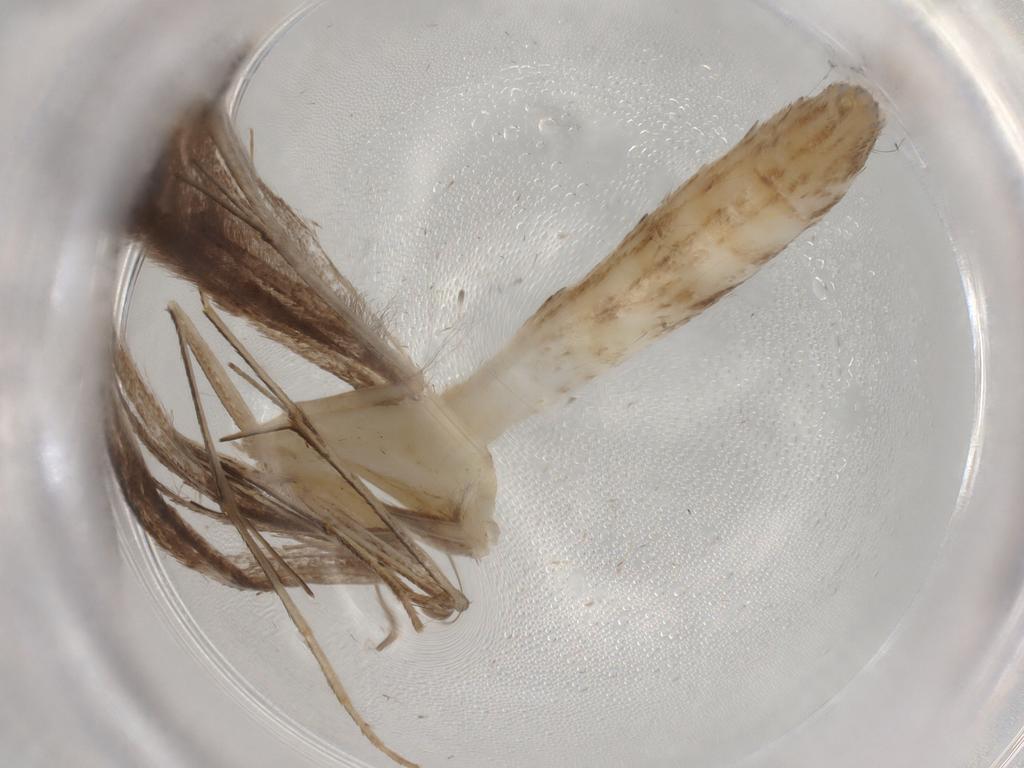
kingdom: Animalia
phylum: Arthropoda
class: Insecta
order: Lepidoptera
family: Elachistidae
